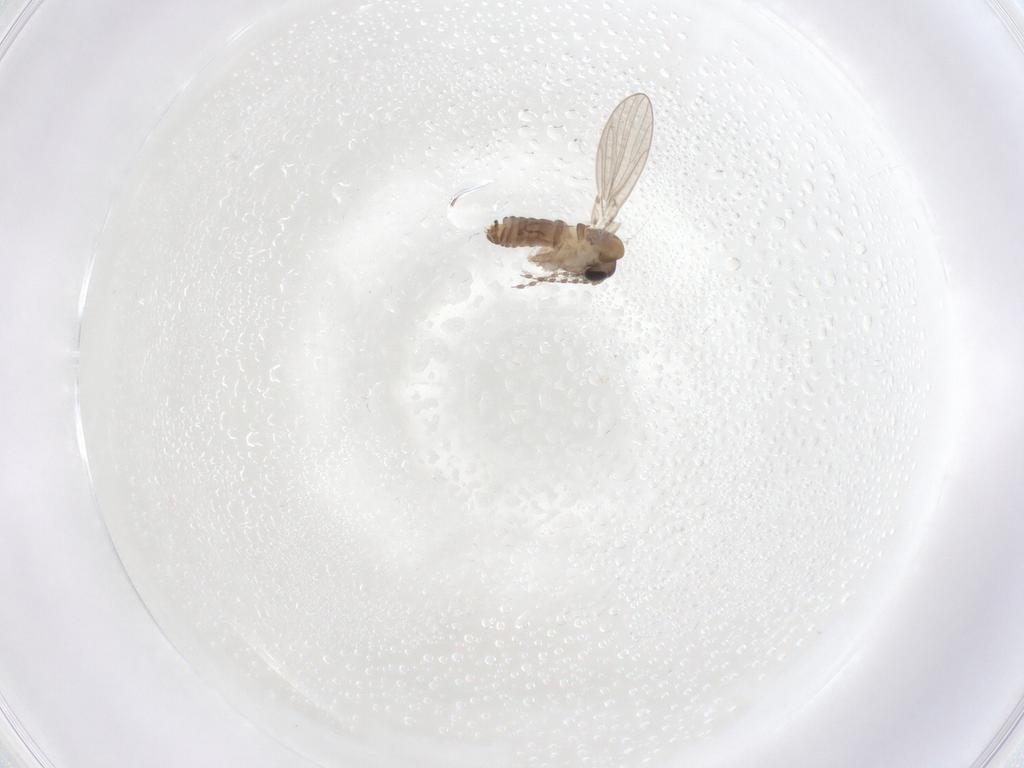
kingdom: Animalia
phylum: Arthropoda
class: Insecta
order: Diptera
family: Psychodidae
